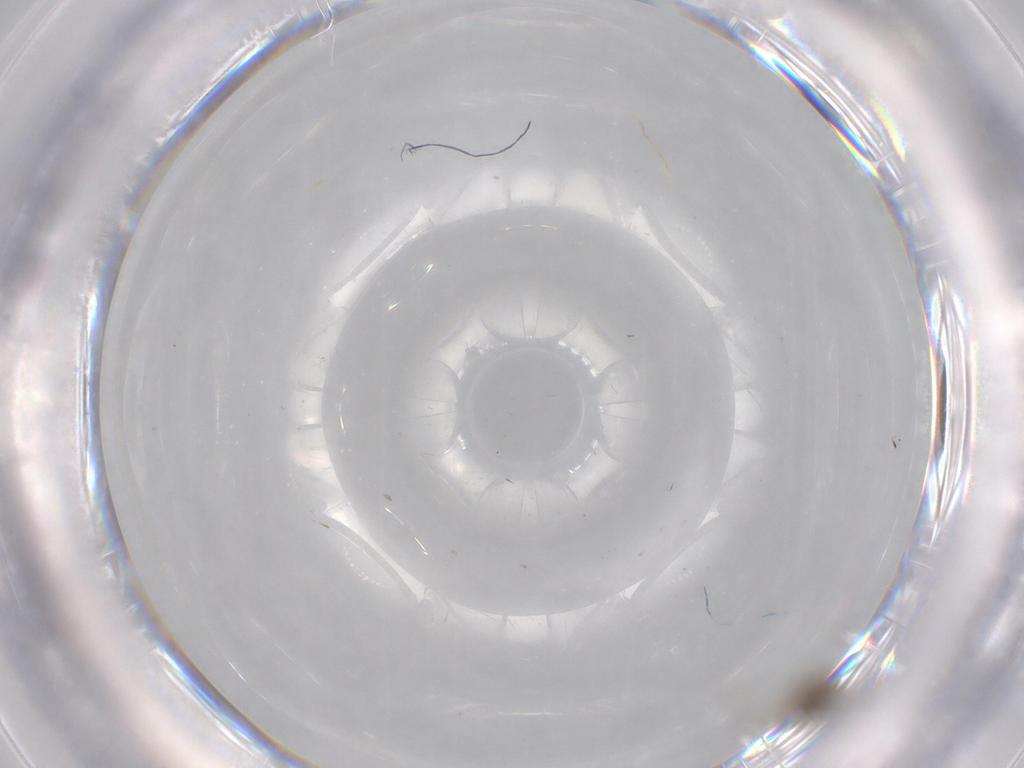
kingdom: Animalia
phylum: Arthropoda
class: Insecta
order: Diptera
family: Cecidomyiidae
